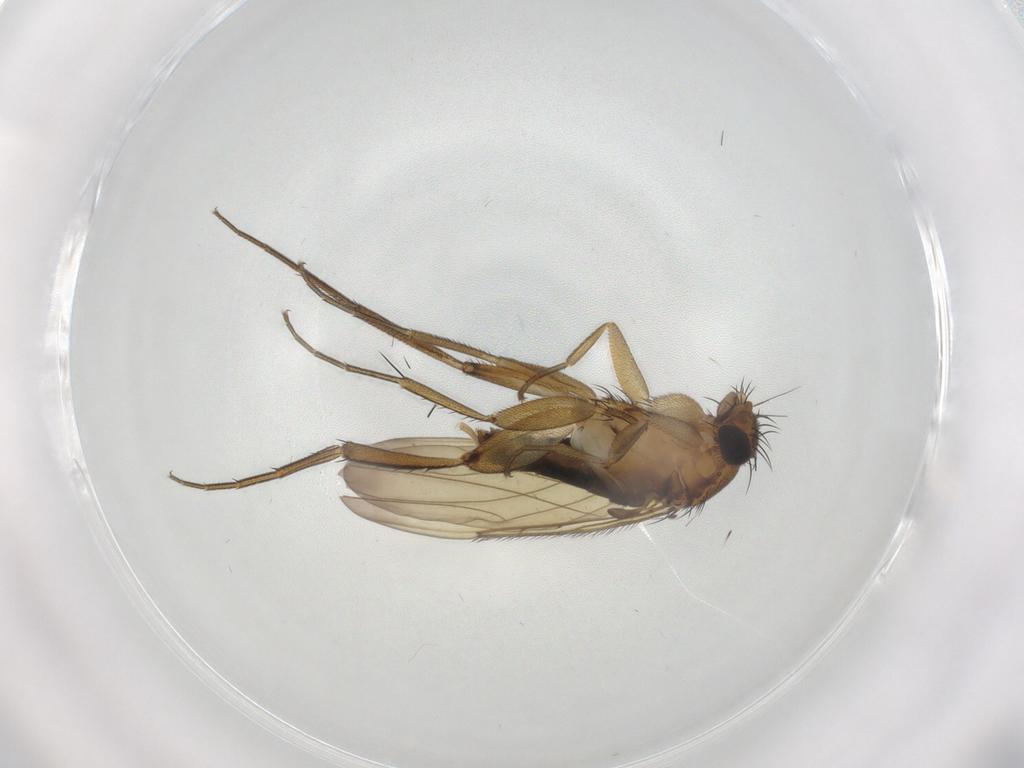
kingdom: Animalia
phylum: Arthropoda
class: Insecta
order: Diptera
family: Phoridae
